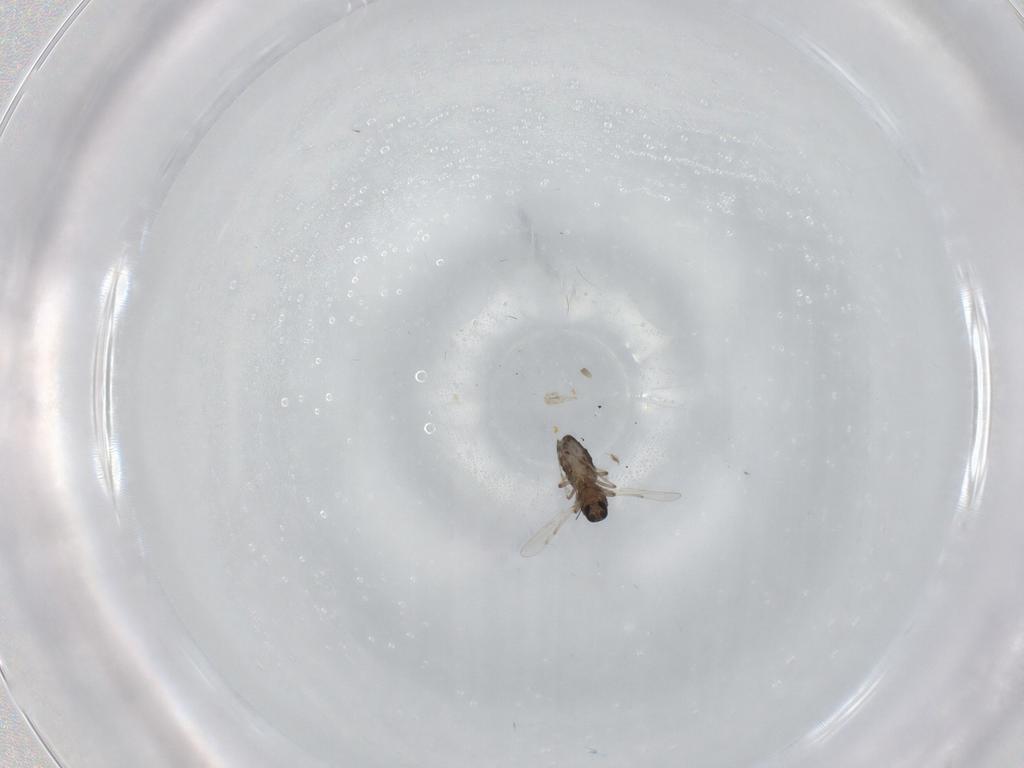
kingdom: Animalia
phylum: Arthropoda
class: Insecta
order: Diptera
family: Ceratopogonidae
